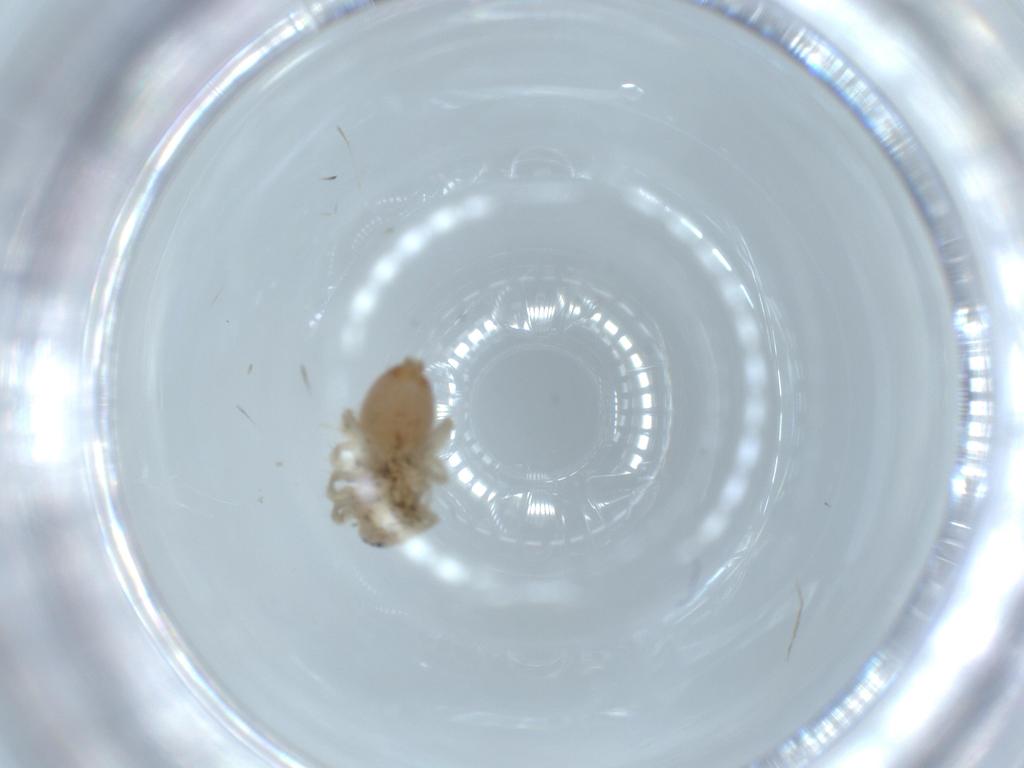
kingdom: Animalia
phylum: Arthropoda
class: Arachnida
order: Araneae
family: Clubionidae
